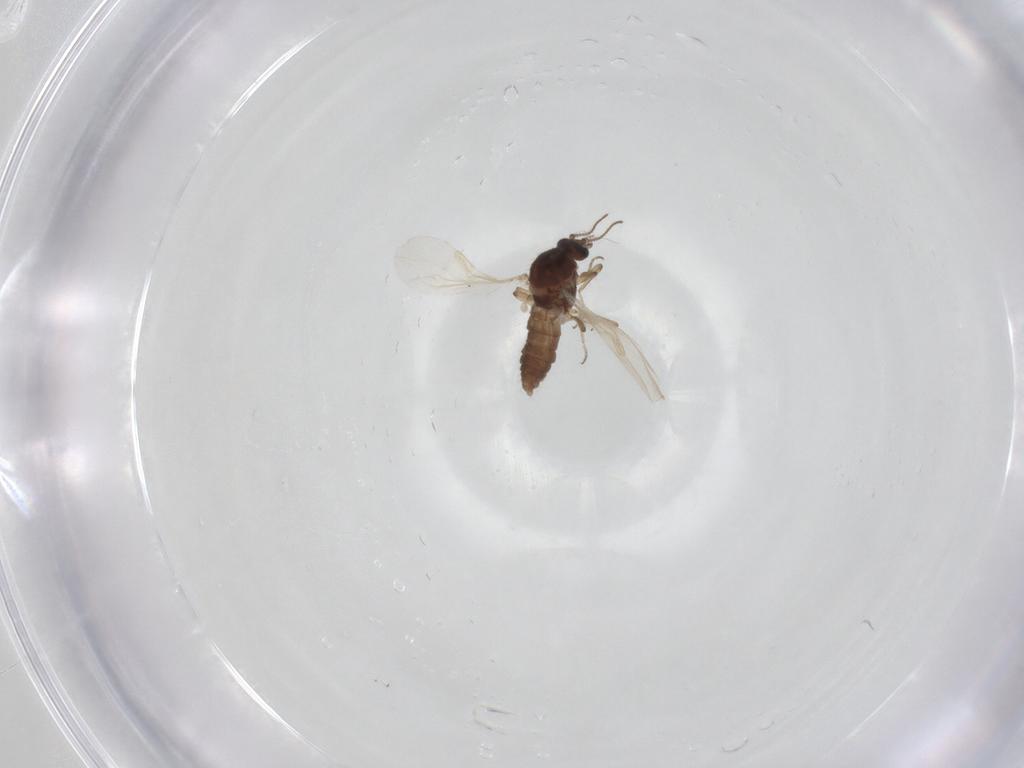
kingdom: Animalia
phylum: Arthropoda
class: Insecta
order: Diptera
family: Ceratopogonidae
